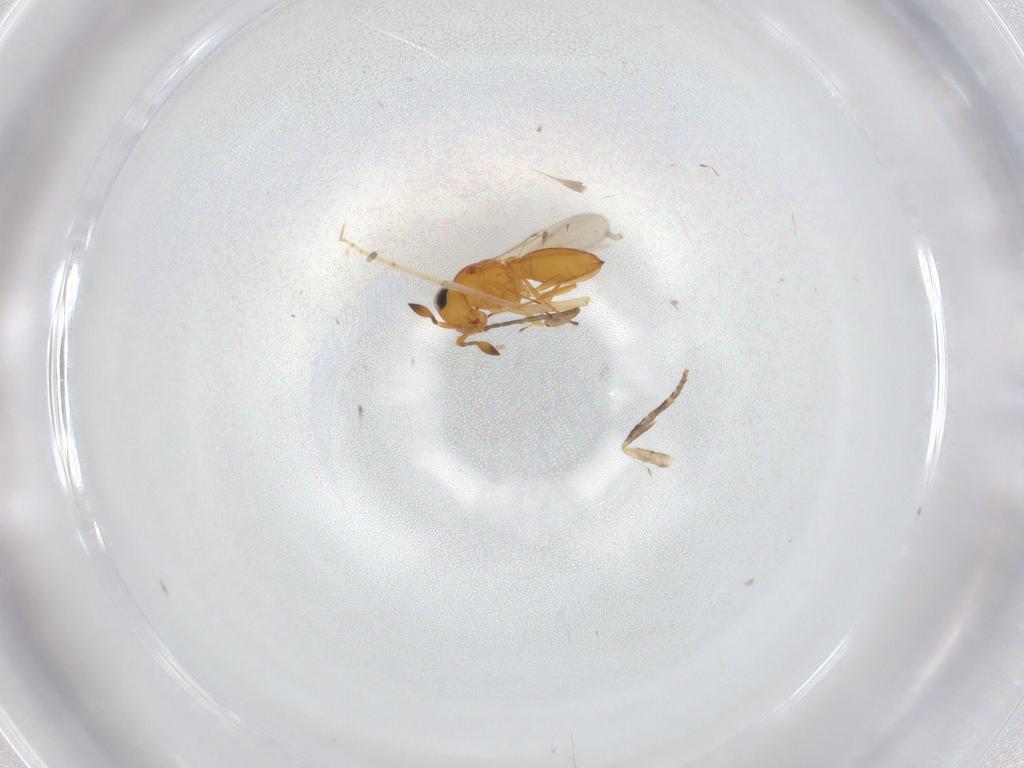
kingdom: Animalia
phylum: Arthropoda
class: Insecta
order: Hymenoptera
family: Scelionidae
